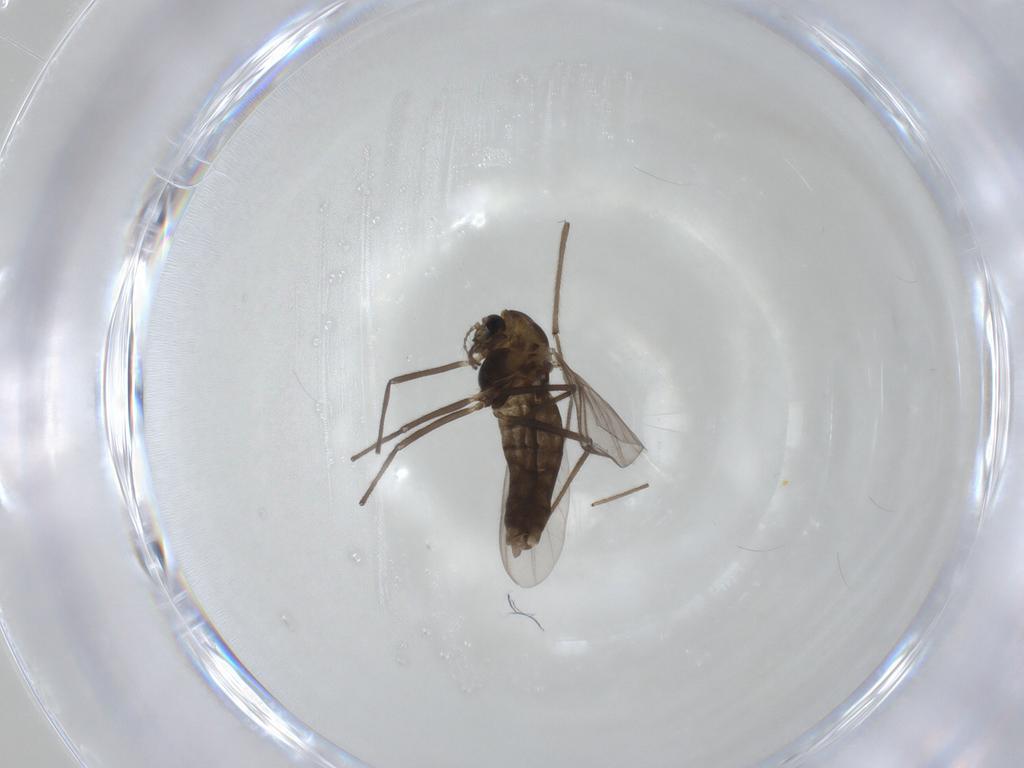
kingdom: Animalia
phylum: Arthropoda
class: Insecta
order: Diptera
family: Chironomidae
